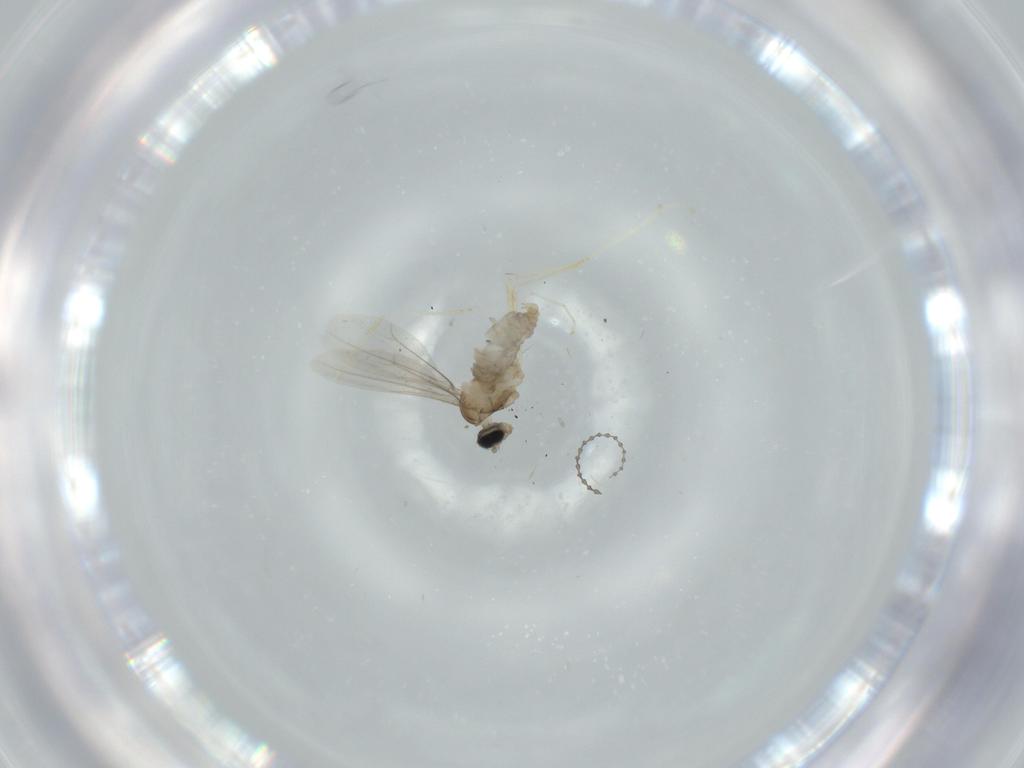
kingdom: Animalia
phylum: Arthropoda
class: Insecta
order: Diptera
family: Cecidomyiidae
